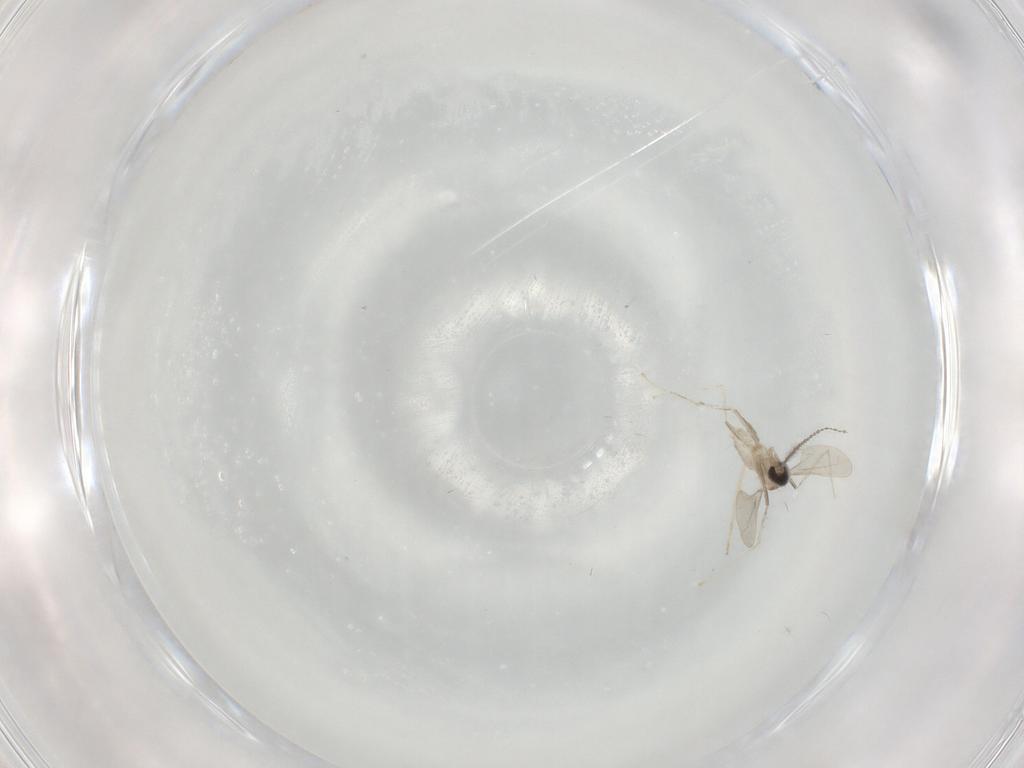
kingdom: Animalia
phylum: Arthropoda
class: Insecta
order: Diptera
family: Cecidomyiidae
